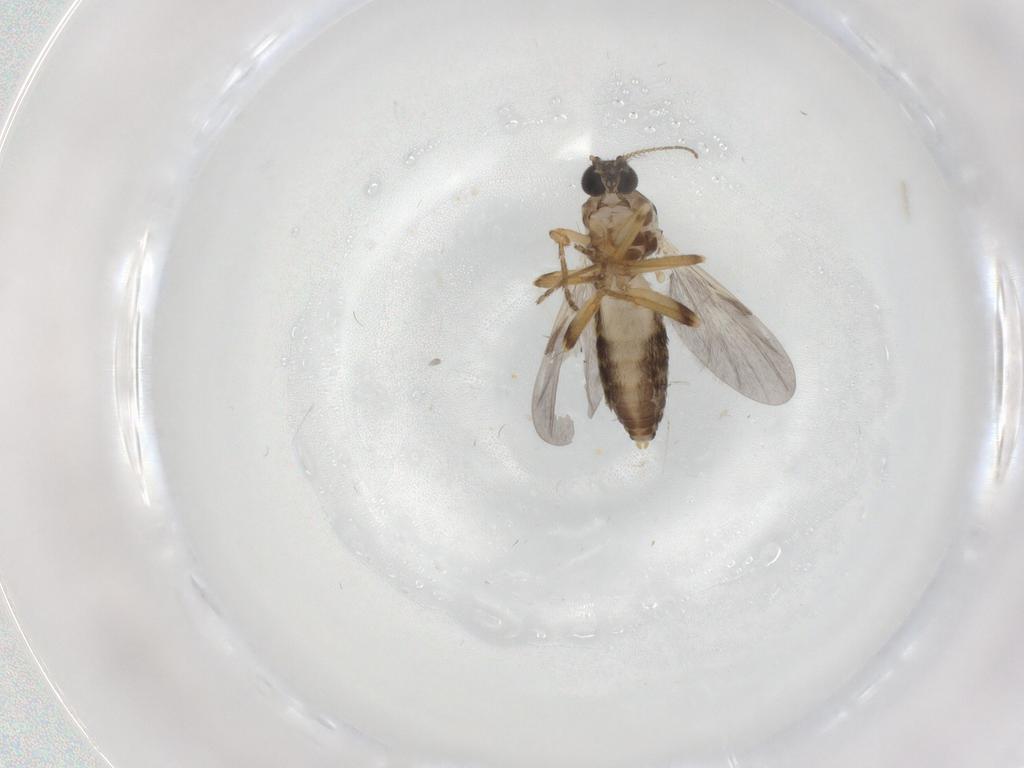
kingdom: Animalia
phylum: Arthropoda
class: Insecta
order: Diptera
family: Ceratopogonidae
